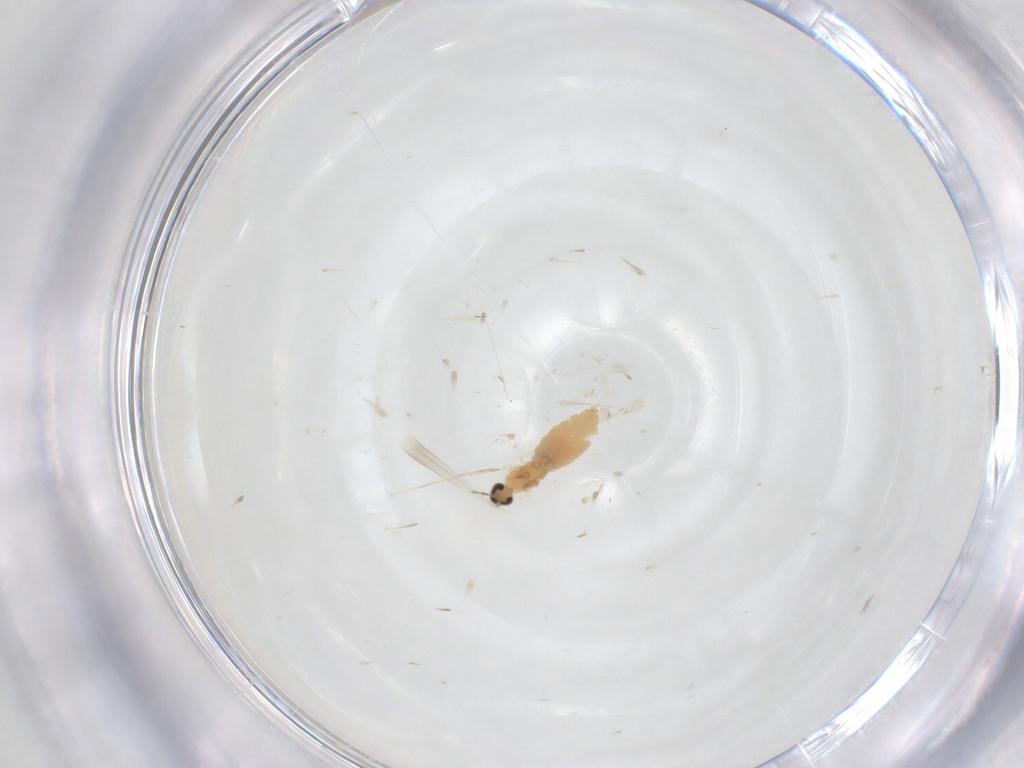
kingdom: Animalia
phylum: Arthropoda
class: Insecta
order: Diptera
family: Cecidomyiidae
